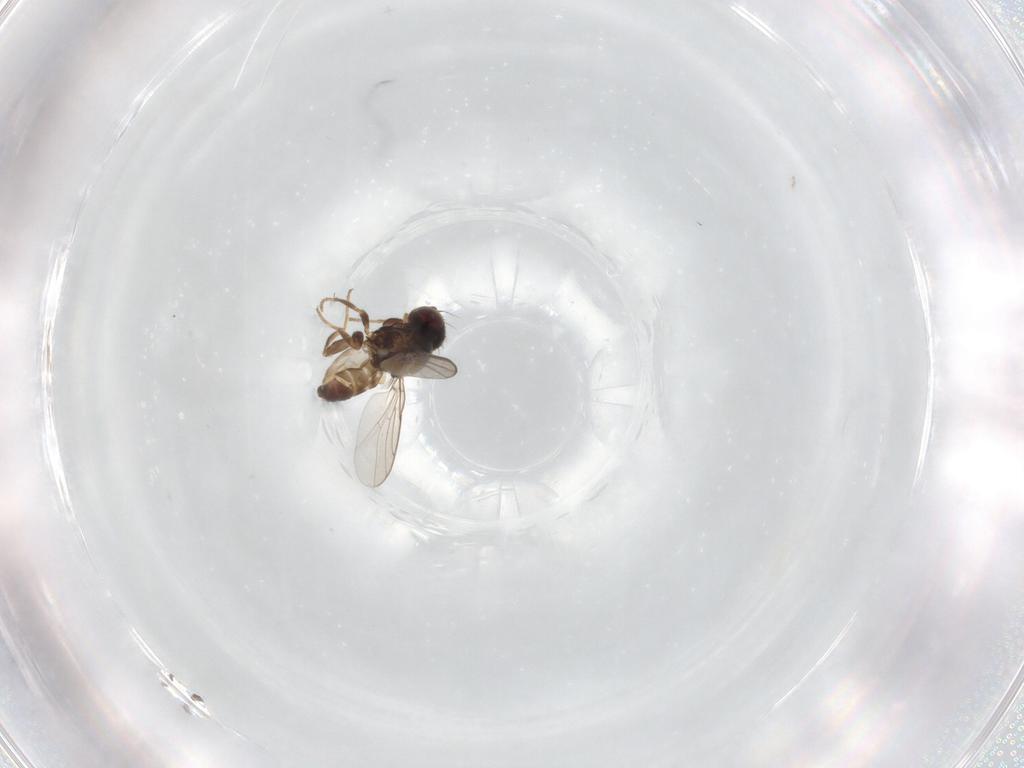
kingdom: Animalia
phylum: Arthropoda
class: Insecta
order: Diptera
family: Chloropidae
